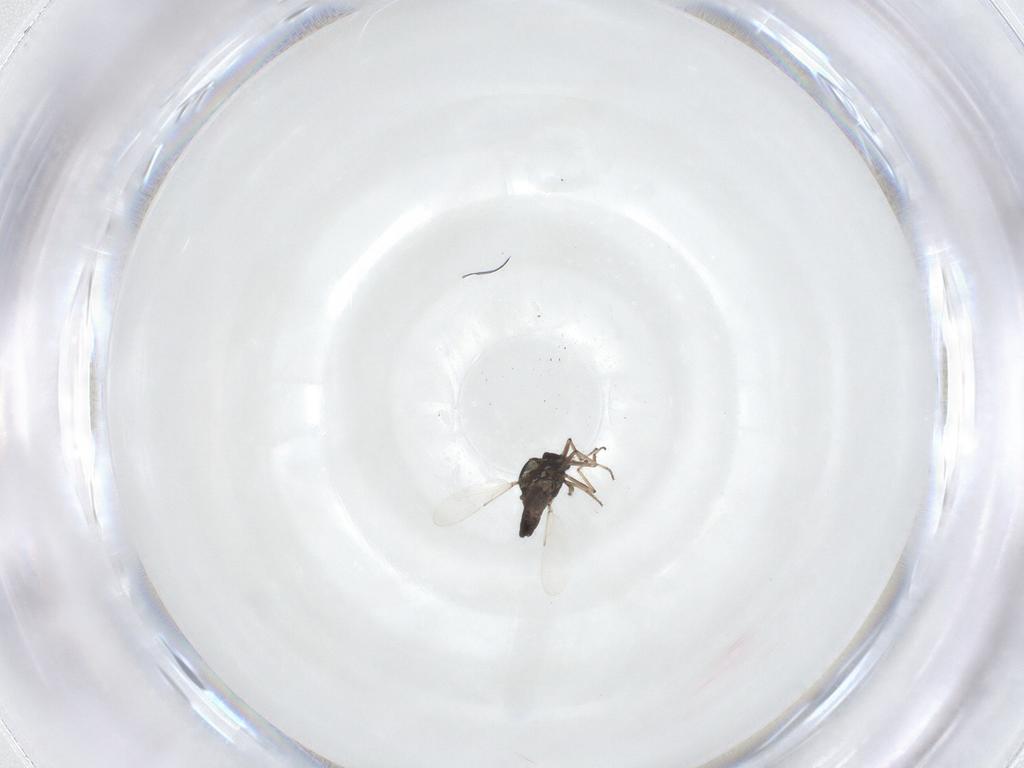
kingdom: Animalia
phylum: Arthropoda
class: Insecta
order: Diptera
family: Ceratopogonidae
